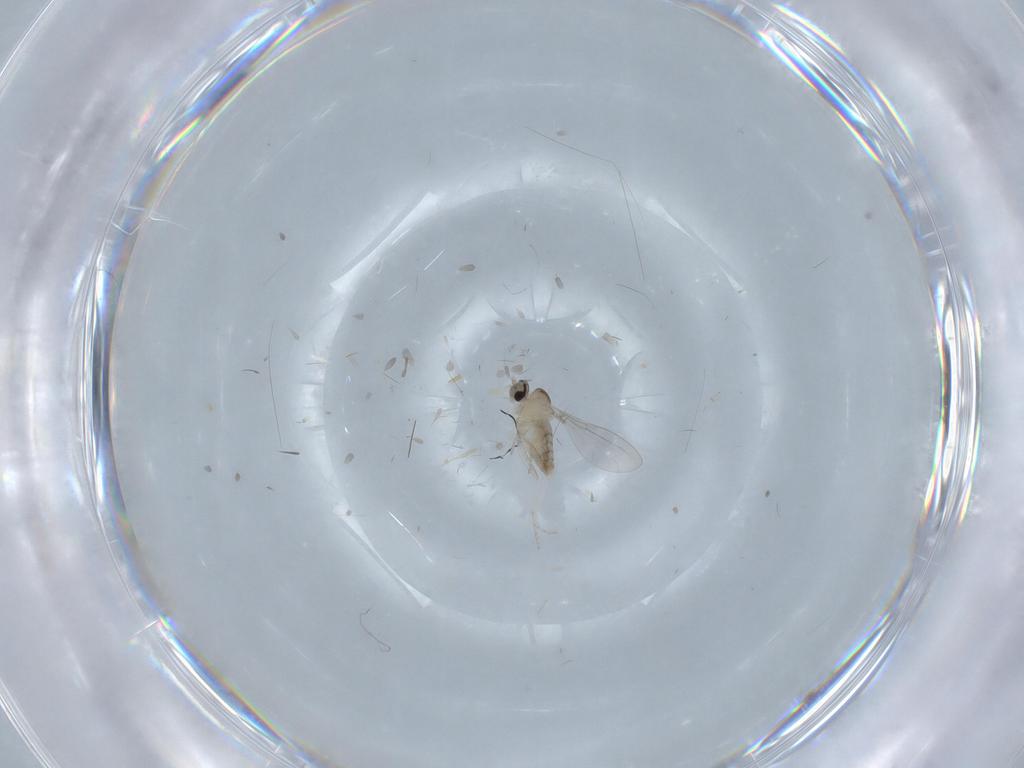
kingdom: Animalia
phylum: Arthropoda
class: Insecta
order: Diptera
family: Cecidomyiidae
